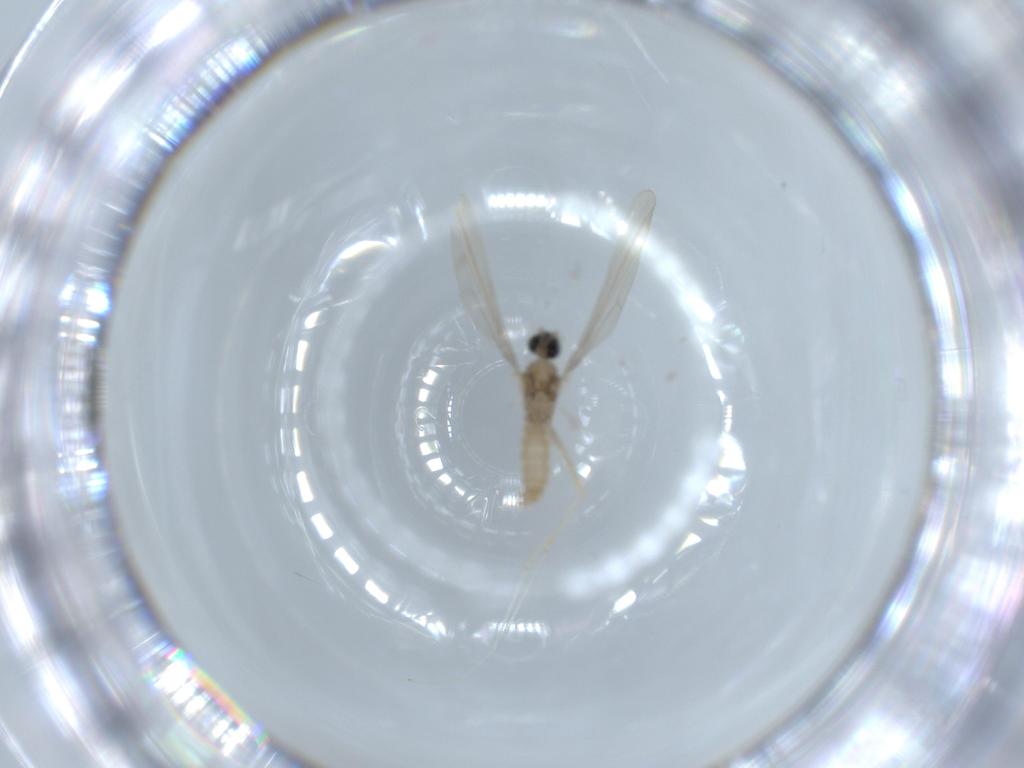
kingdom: Animalia
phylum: Arthropoda
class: Insecta
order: Diptera
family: Cecidomyiidae
